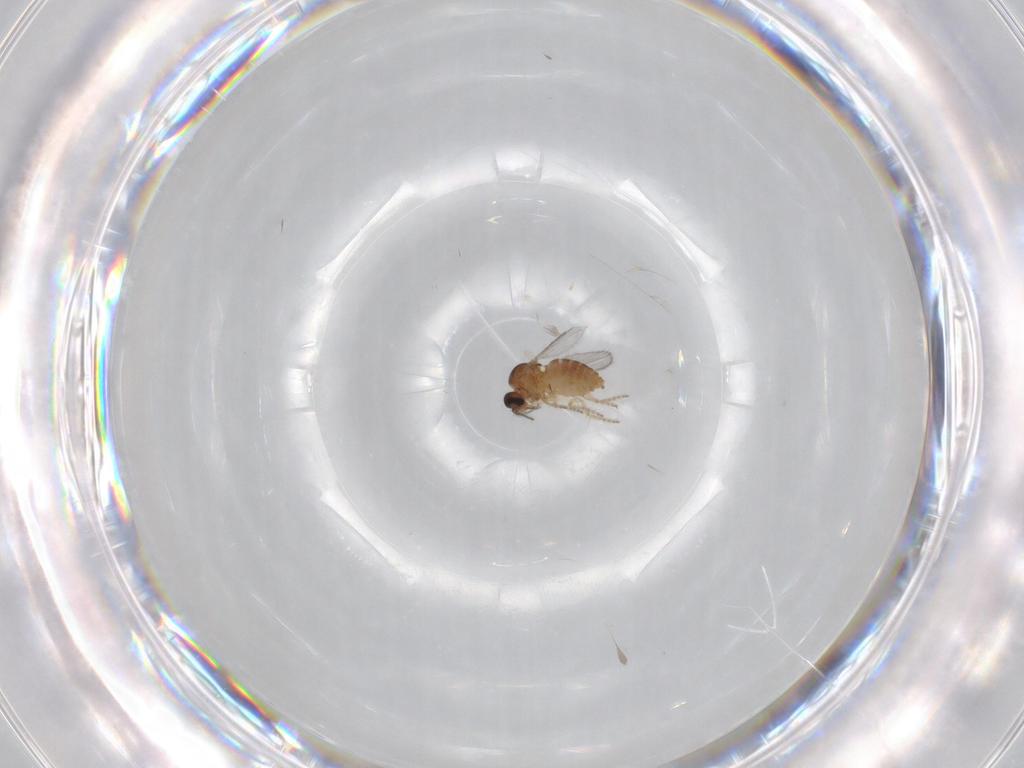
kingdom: Animalia
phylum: Arthropoda
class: Insecta
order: Diptera
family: Ceratopogonidae
